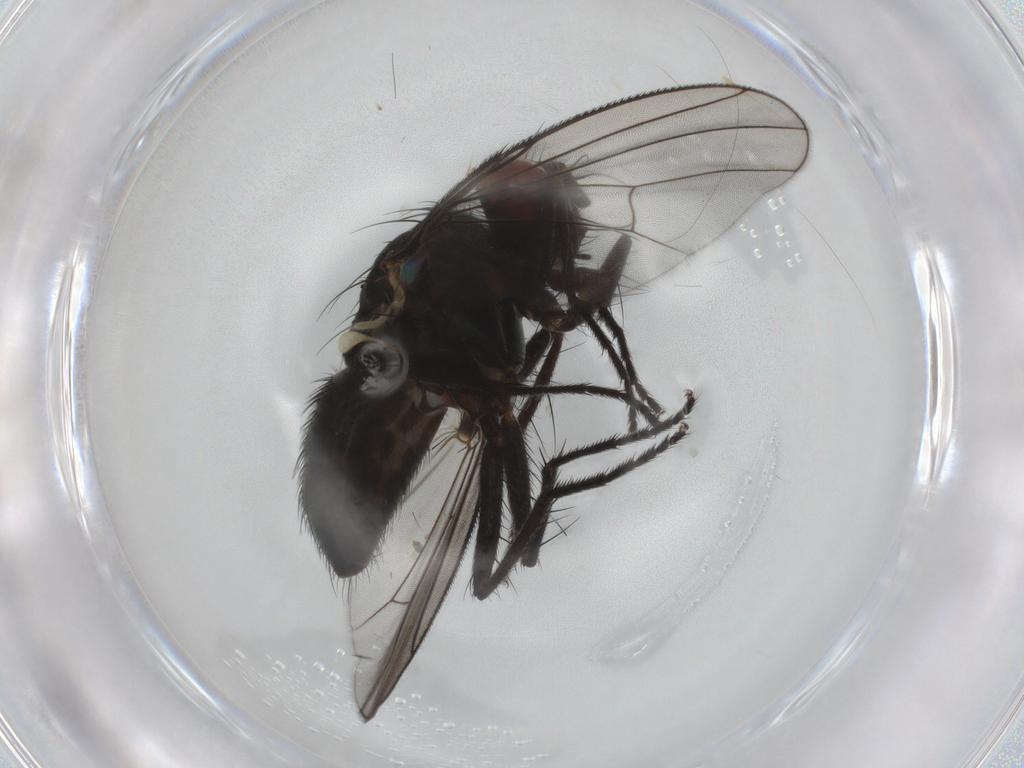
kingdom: Animalia
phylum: Arthropoda
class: Insecta
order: Diptera
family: Muscidae
